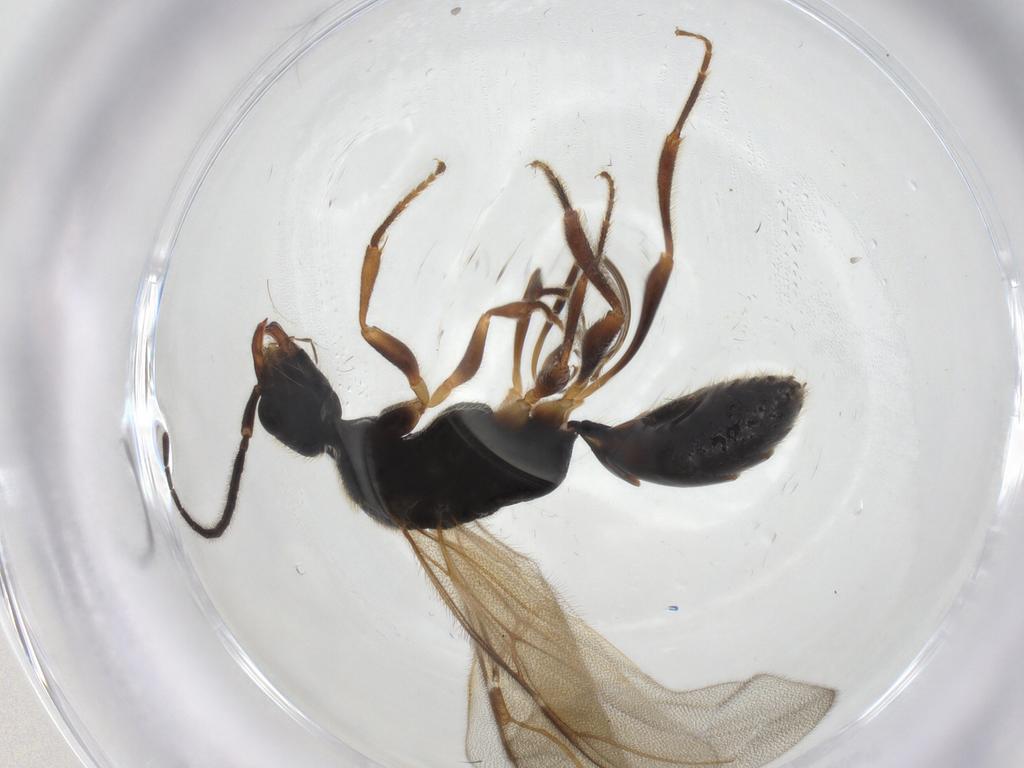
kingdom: Animalia
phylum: Arthropoda
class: Insecta
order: Hymenoptera
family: Bethylidae
